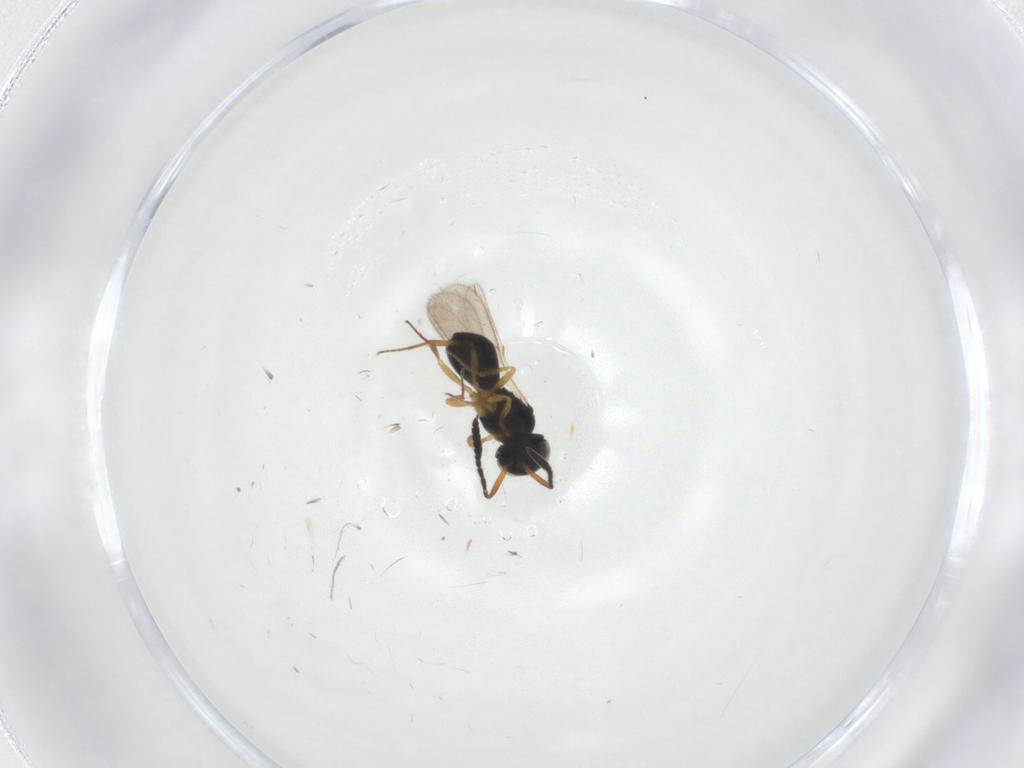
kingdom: Animalia
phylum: Arthropoda
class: Insecta
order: Hymenoptera
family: Scelionidae
